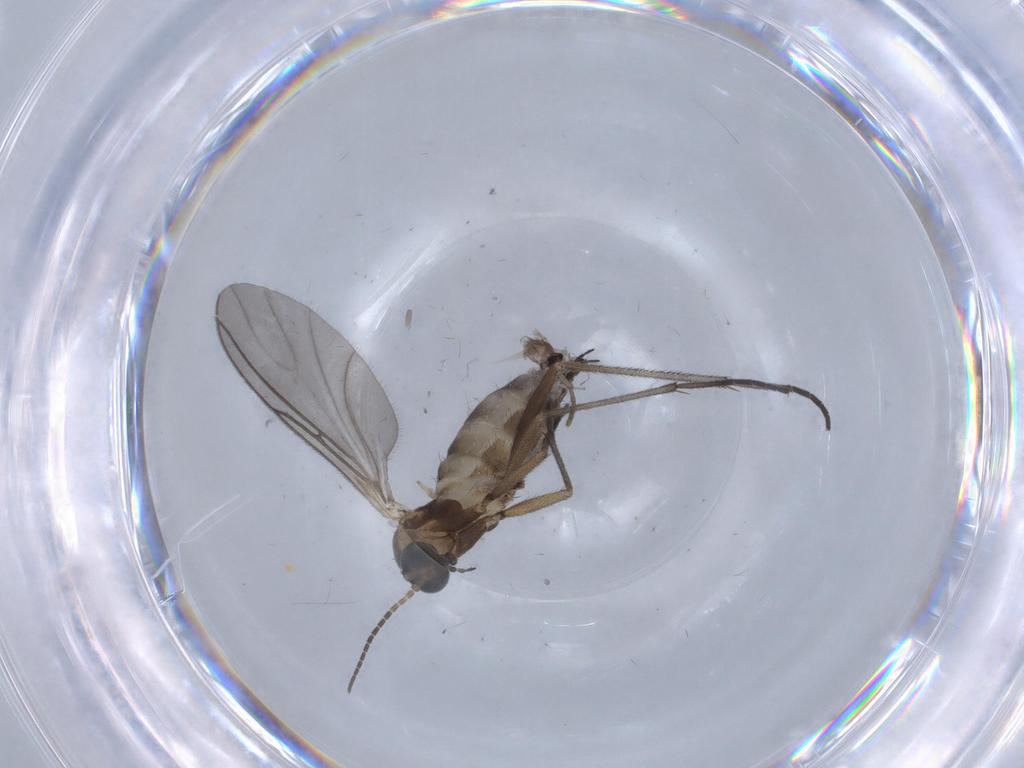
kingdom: Animalia
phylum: Arthropoda
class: Insecta
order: Diptera
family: Sciaridae
